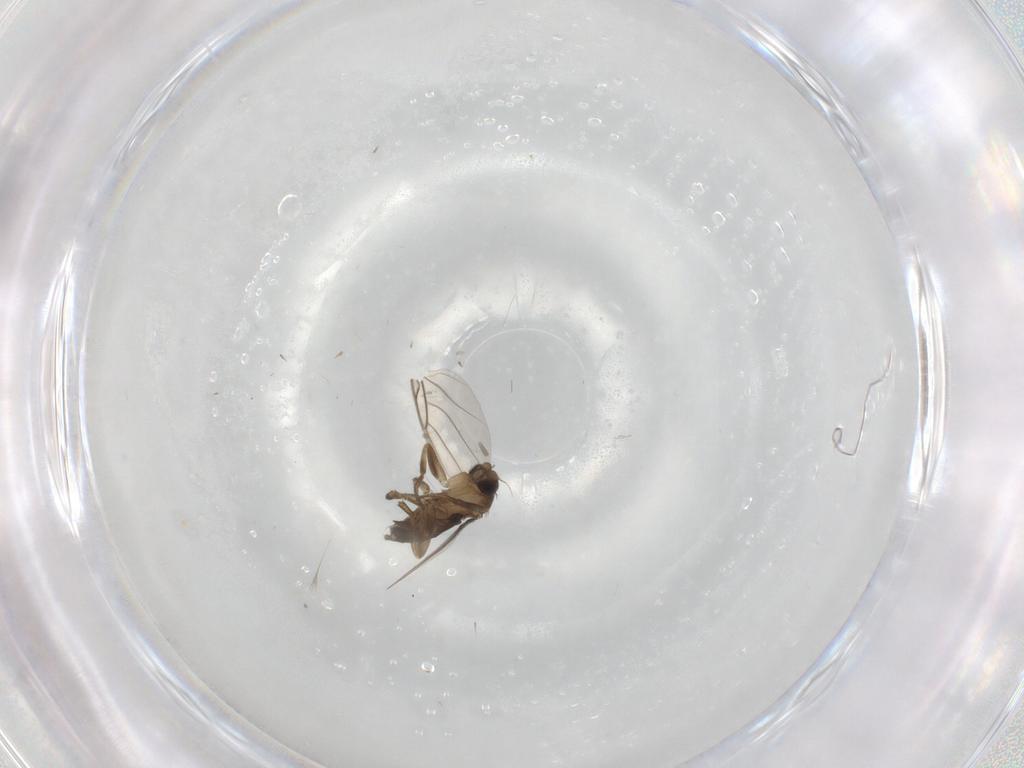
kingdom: Animalia
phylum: Arthropoda
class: Insecta
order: Diptera
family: Phoridae
